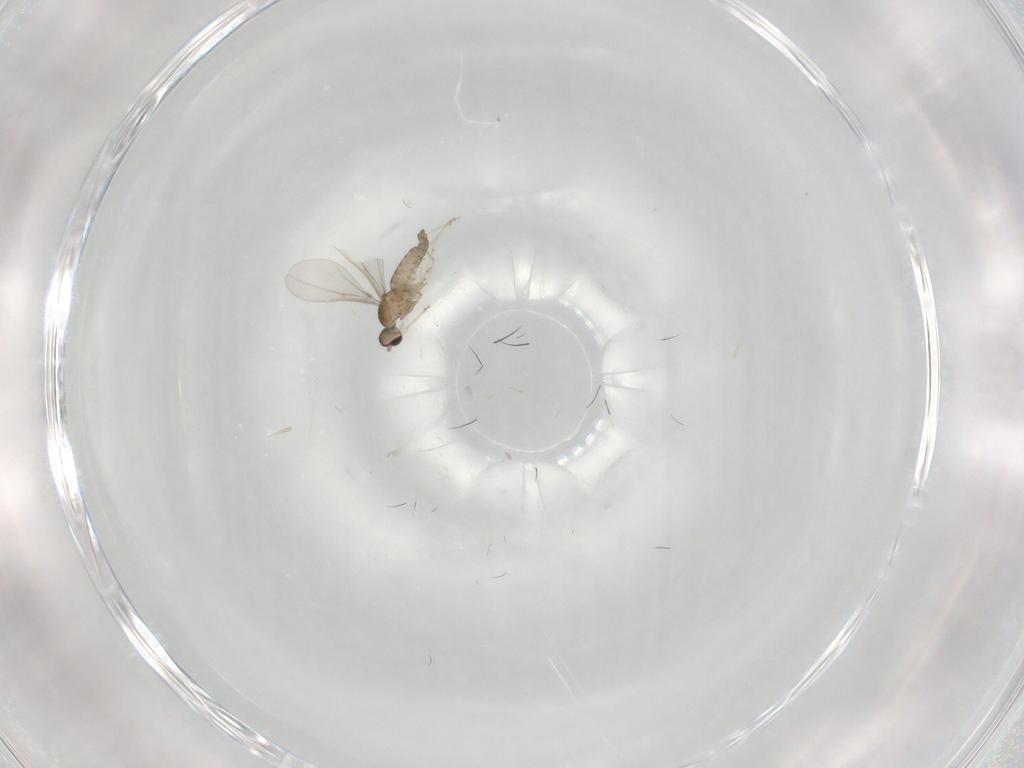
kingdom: Animalia
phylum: Arthropoda
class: Insecta
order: Diptera
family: Cecidomyiidae
